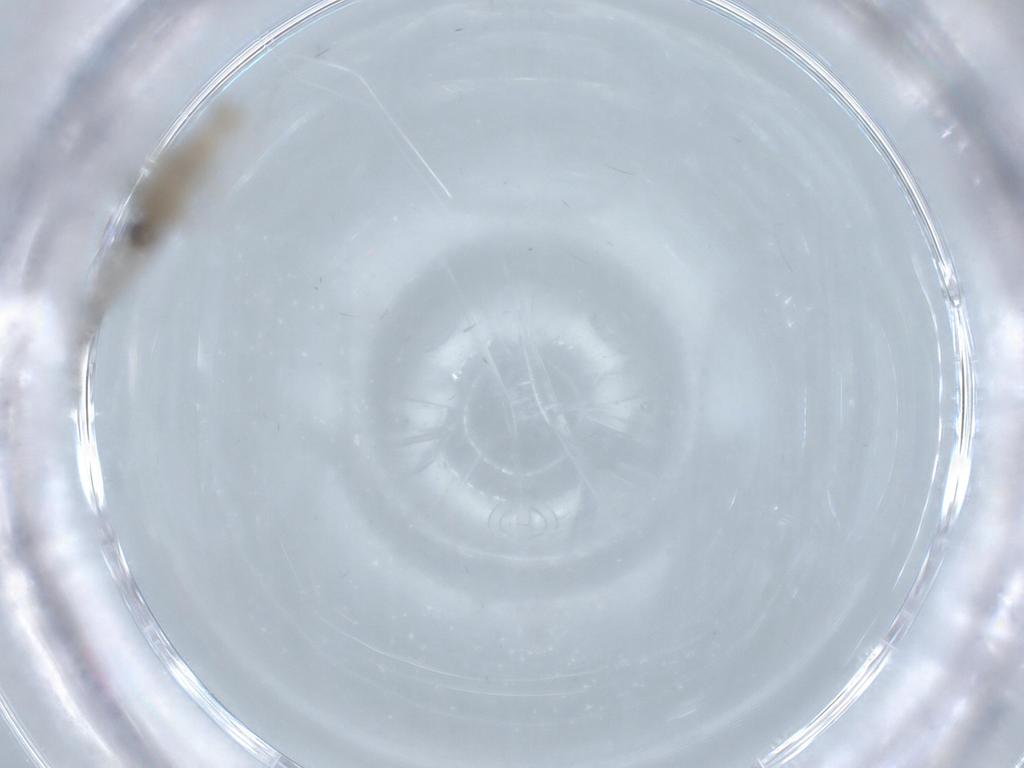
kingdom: Animalia
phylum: Arthropoda
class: Insecta
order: Diptera
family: Cecidomyiidae
